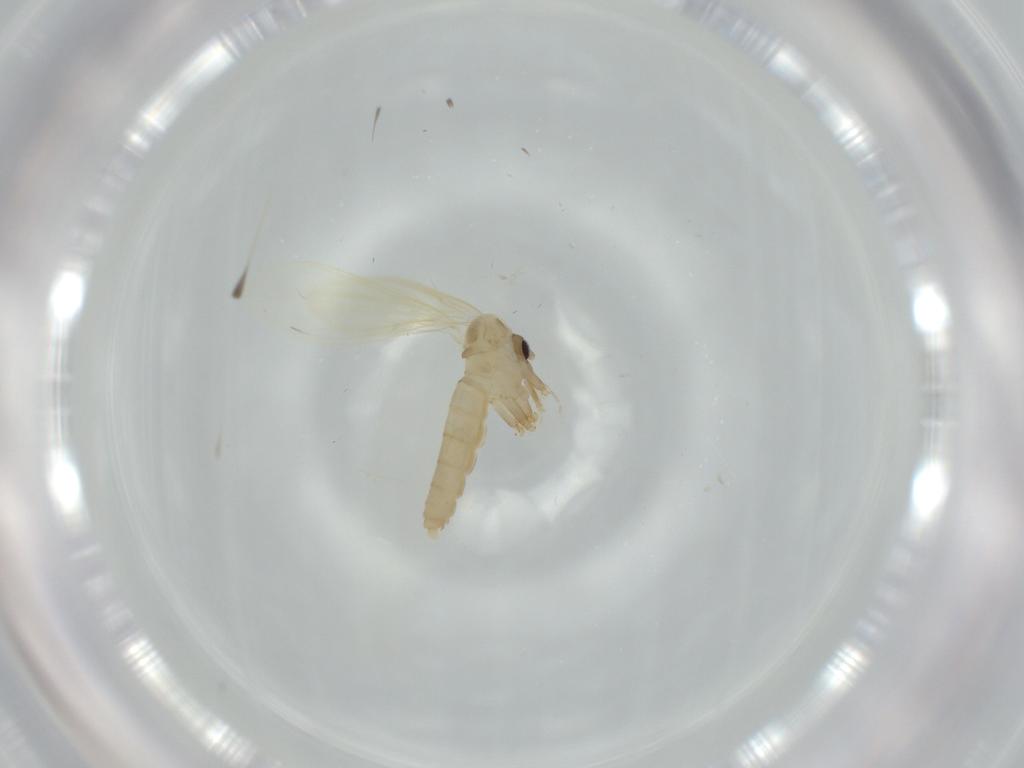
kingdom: Animalia
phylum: Arthropoda
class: Insecta
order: Diptera
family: Psychodidae
